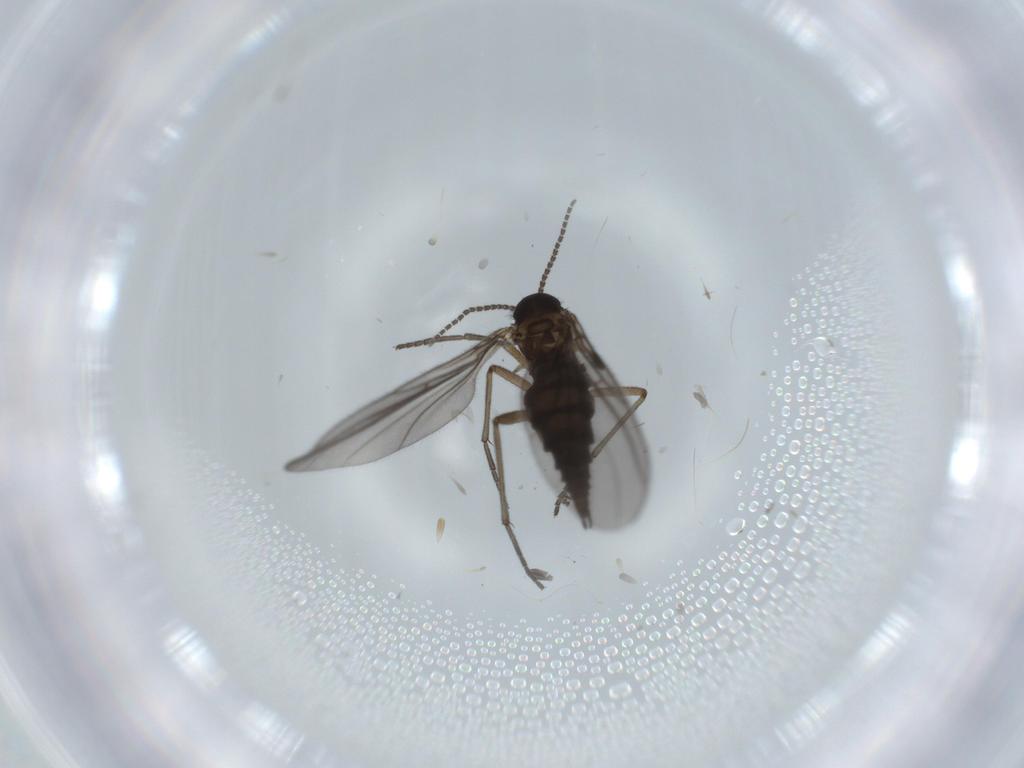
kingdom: Animalia
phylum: Arthropoda
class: Insecta
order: Diptera
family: Sciaridae
